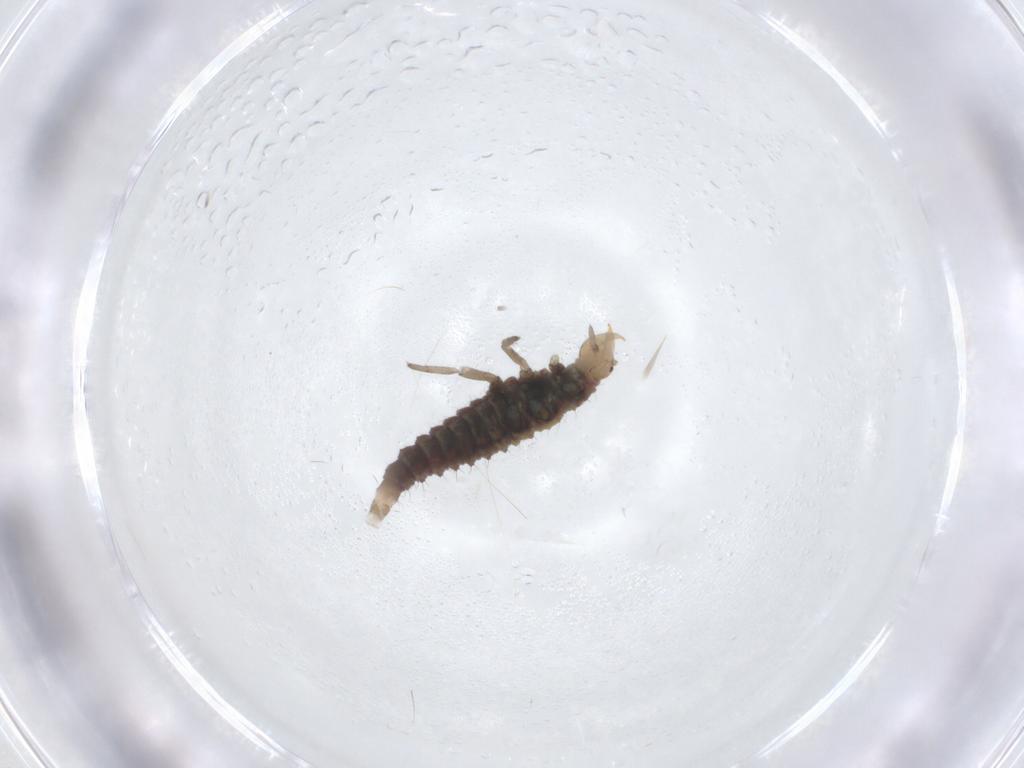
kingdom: Animalia
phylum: Arthropoda
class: Insecta
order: Neuroptera
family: Hemerobiidae
